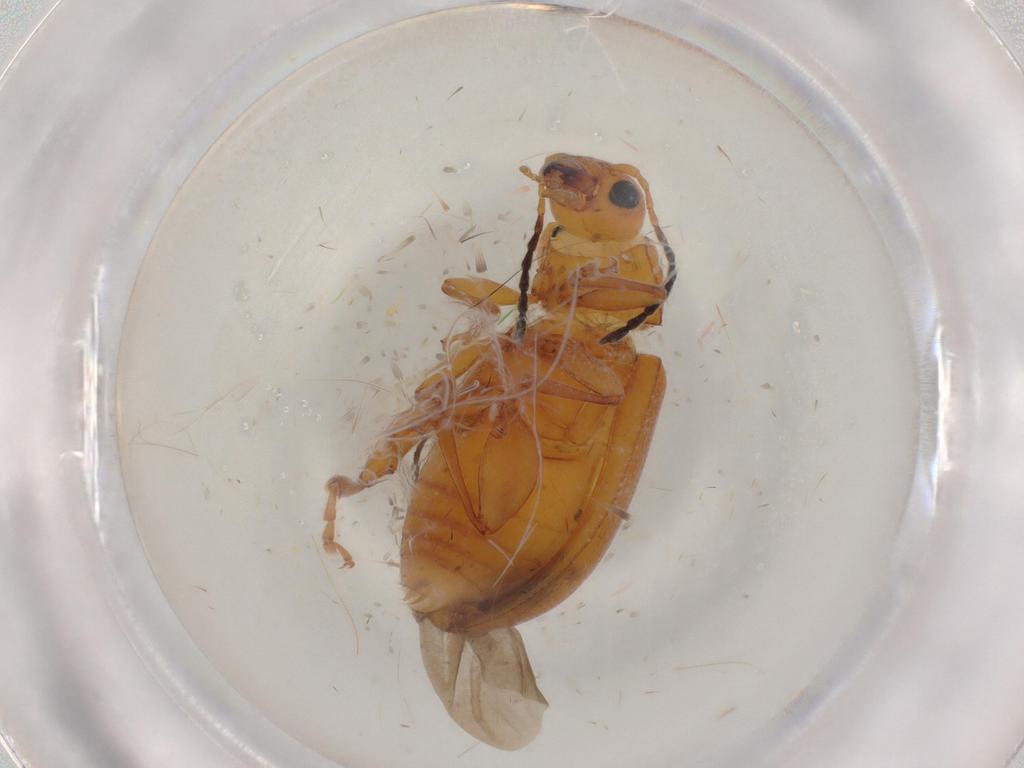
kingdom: Animalia
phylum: Arthropoda
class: Insecta
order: Coleoptera
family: Chrysomelidae
